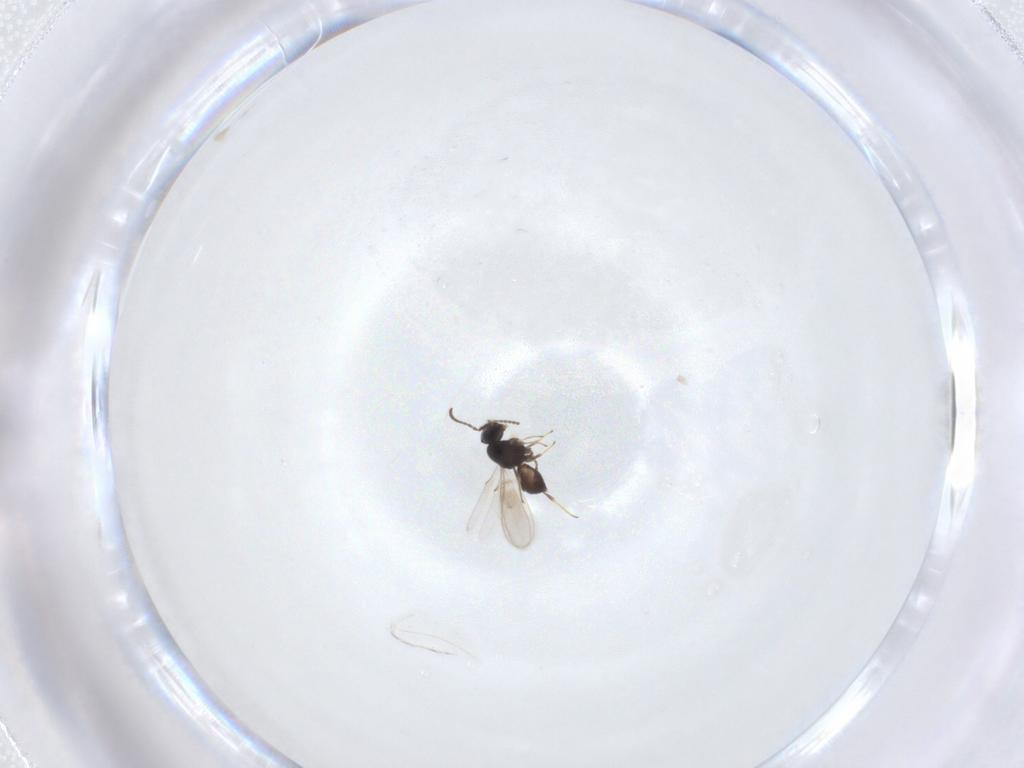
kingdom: Animalia
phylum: Arthropoda
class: Insecta
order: Hymenoptera
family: Scelionidae
